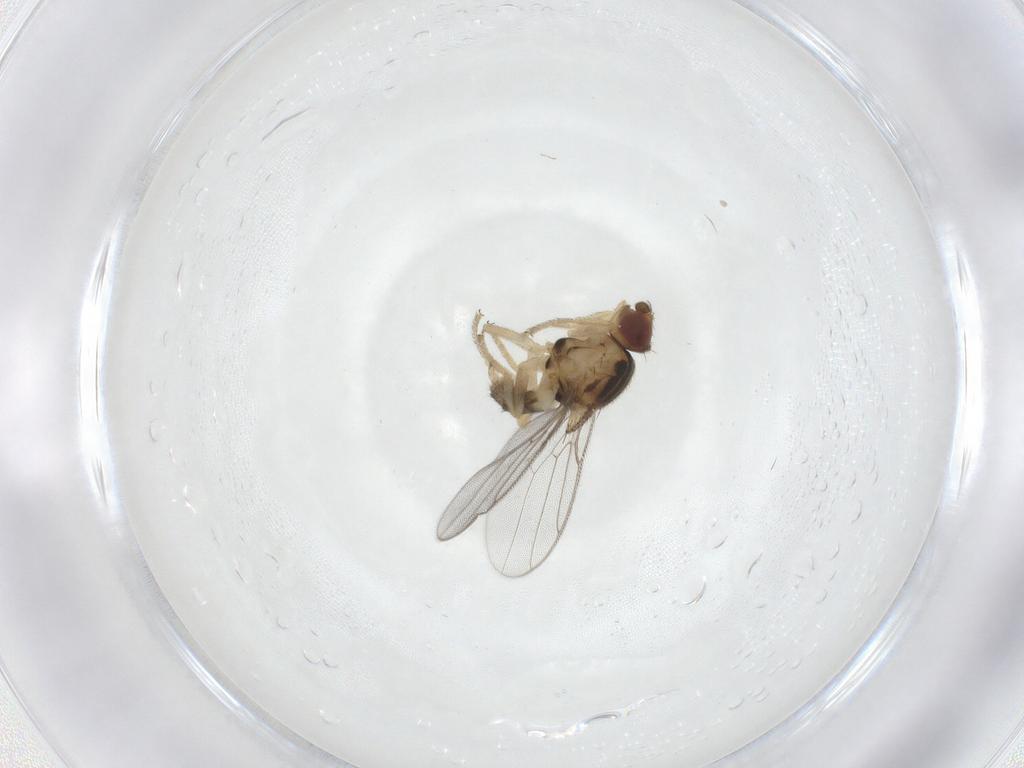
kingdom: Animalia
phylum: Arthropoda
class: Insecta
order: Diptera
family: Chloropidae
